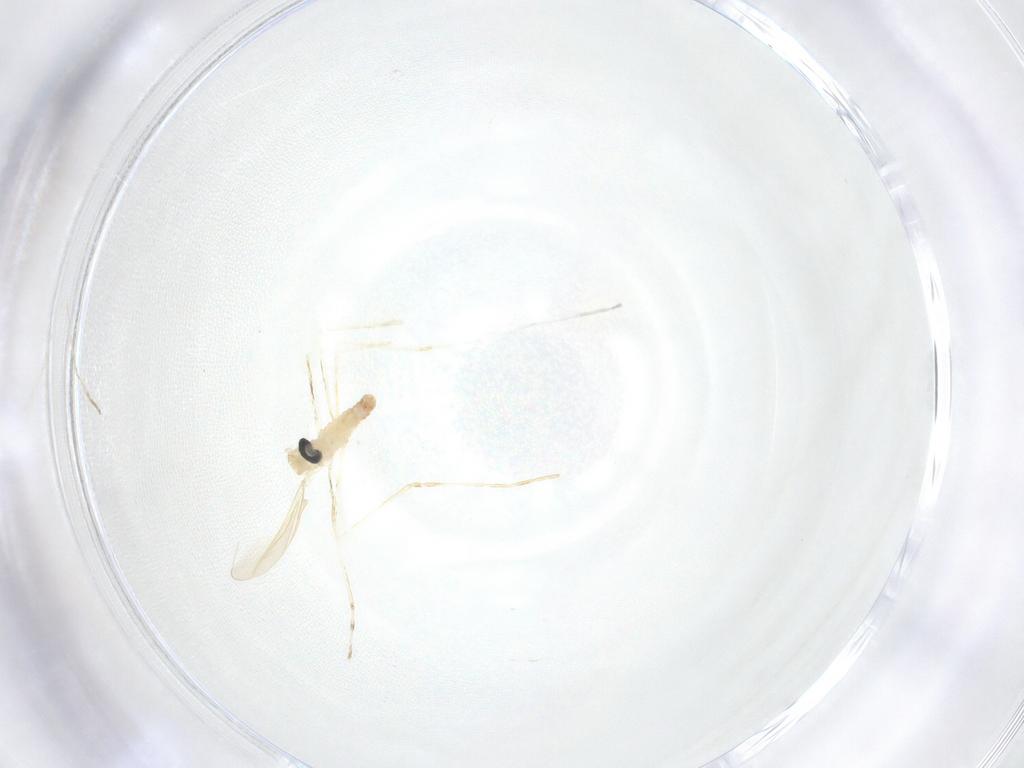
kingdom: Animalia
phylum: Arthropoda
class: Insecta
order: Diptera
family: Cecidomyiidae
